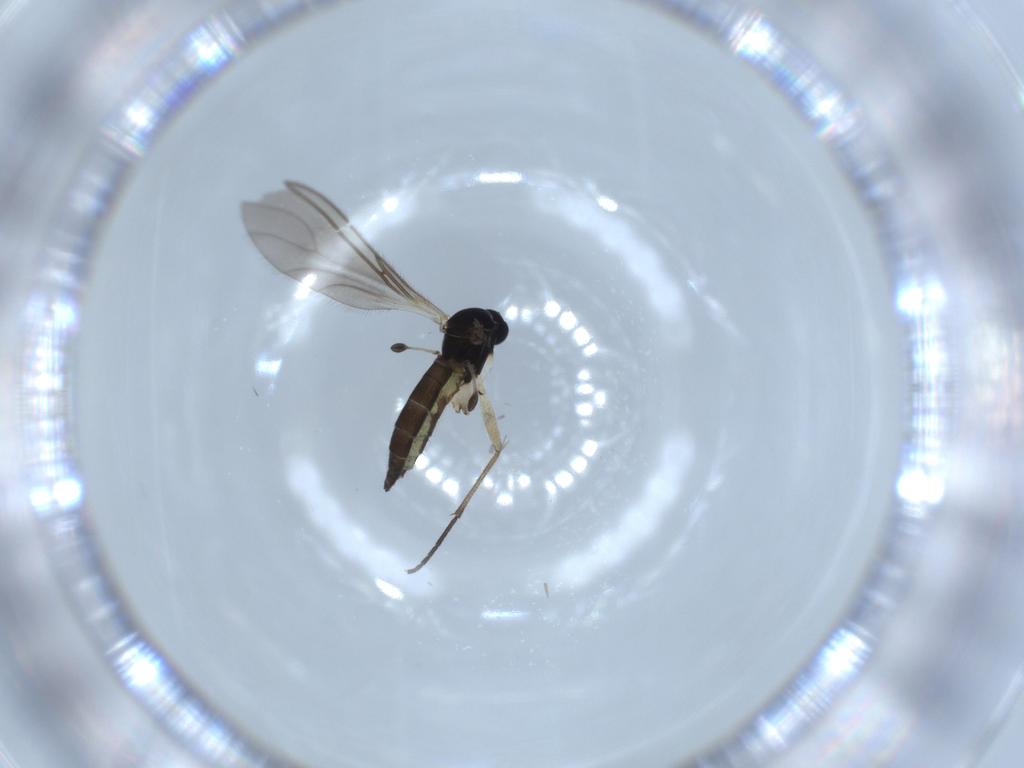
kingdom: Animalia
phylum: Arthropoda
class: Insecta
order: Diptera
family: Sciaridae
